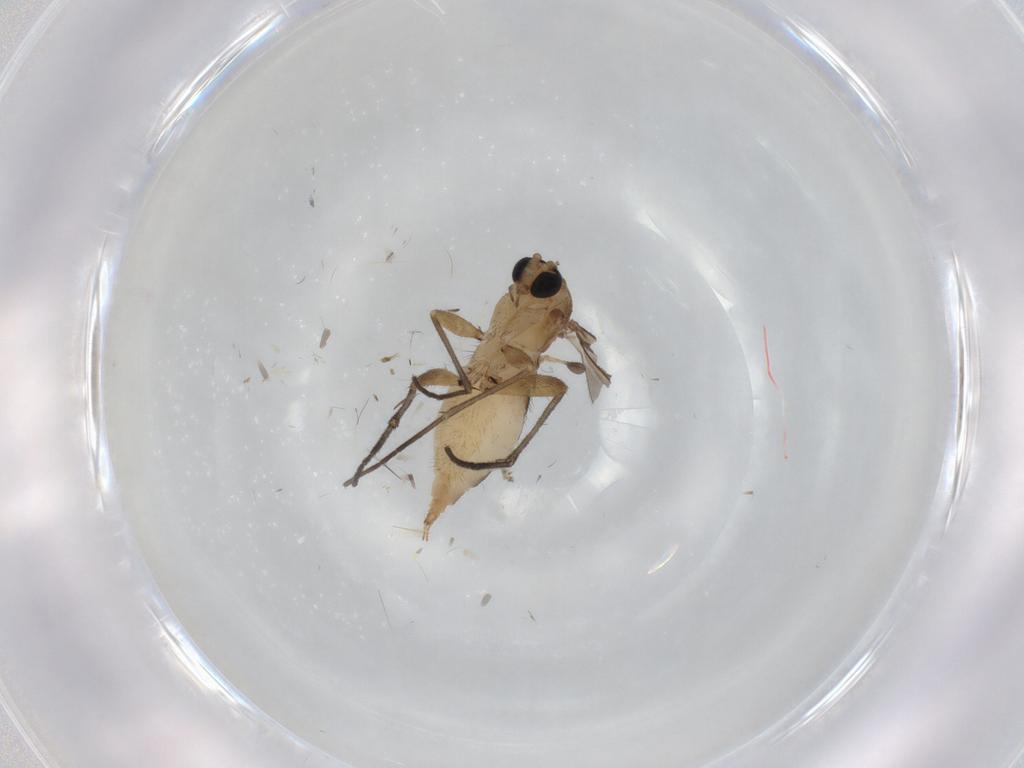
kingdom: Animalia
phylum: Arthropoda
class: Insecta
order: Diptera
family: Sciaridae
